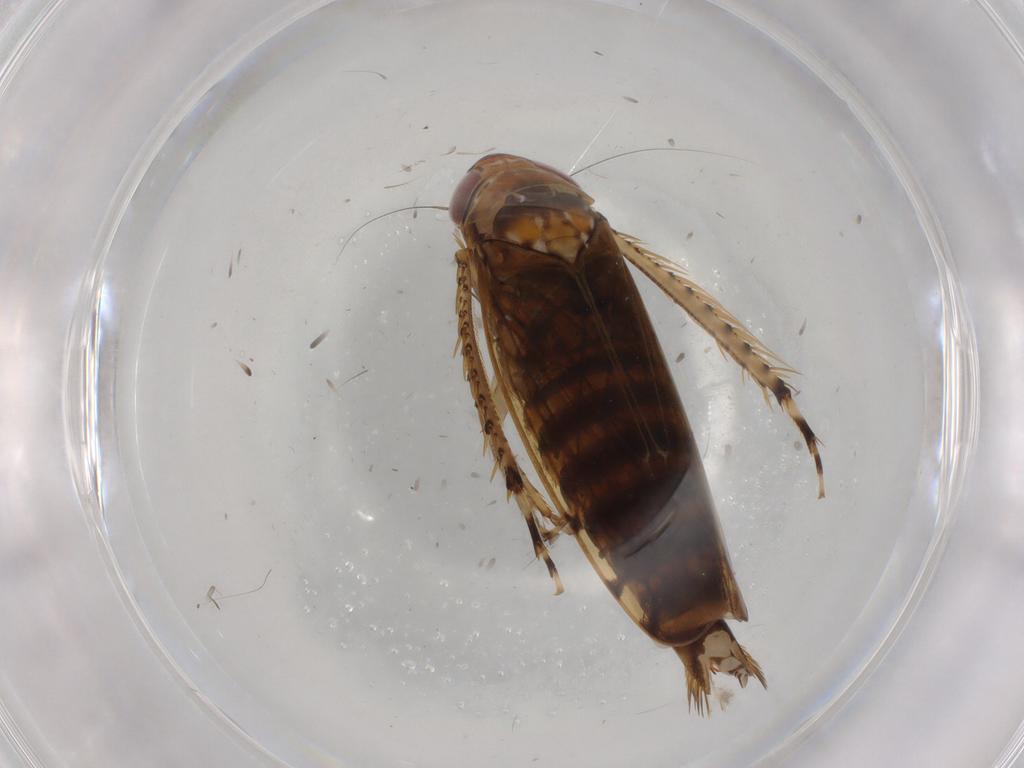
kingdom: Animalia
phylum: Arthropoda
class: Insecta
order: Hemiptera
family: Cicadellidae
